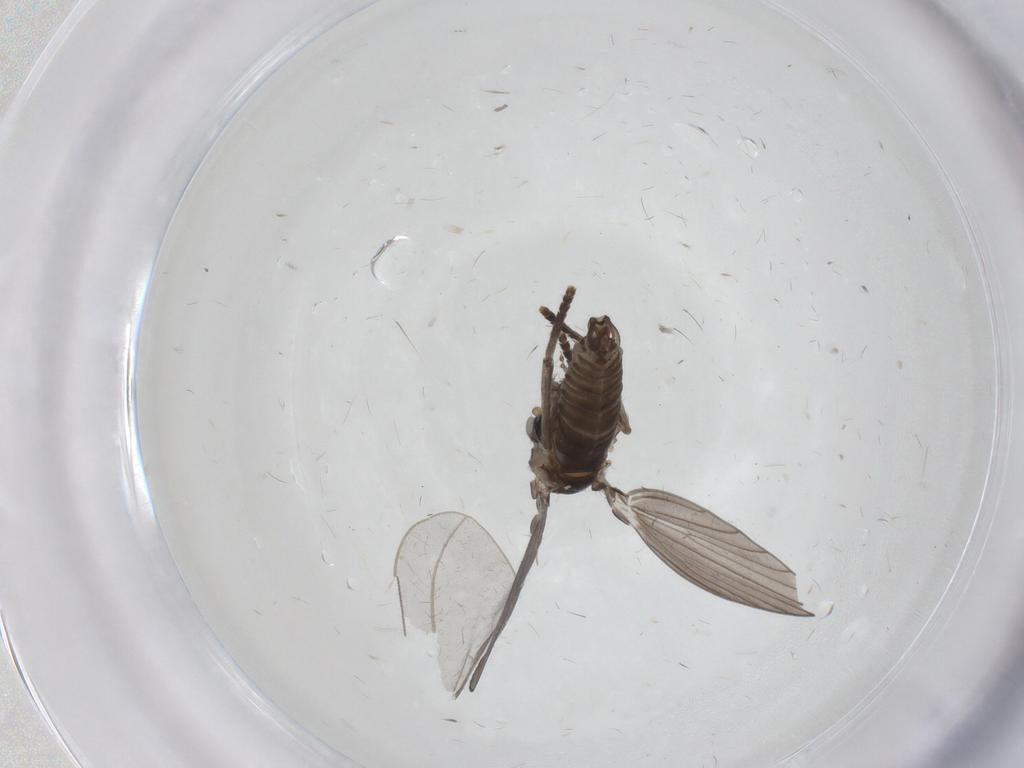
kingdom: Animalia
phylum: Arthropoda
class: Insecta
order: Diptera
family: Psychodidae
